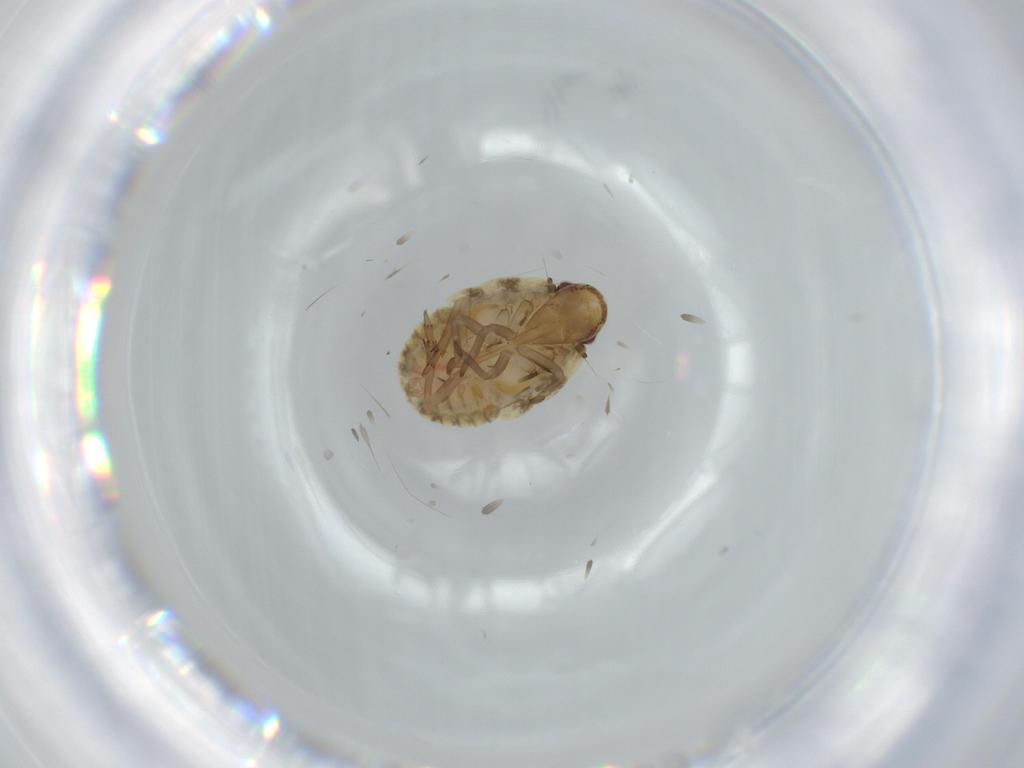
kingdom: Animalia
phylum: Arthropoda
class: Insecta
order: Hemiptera
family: Flatidae
